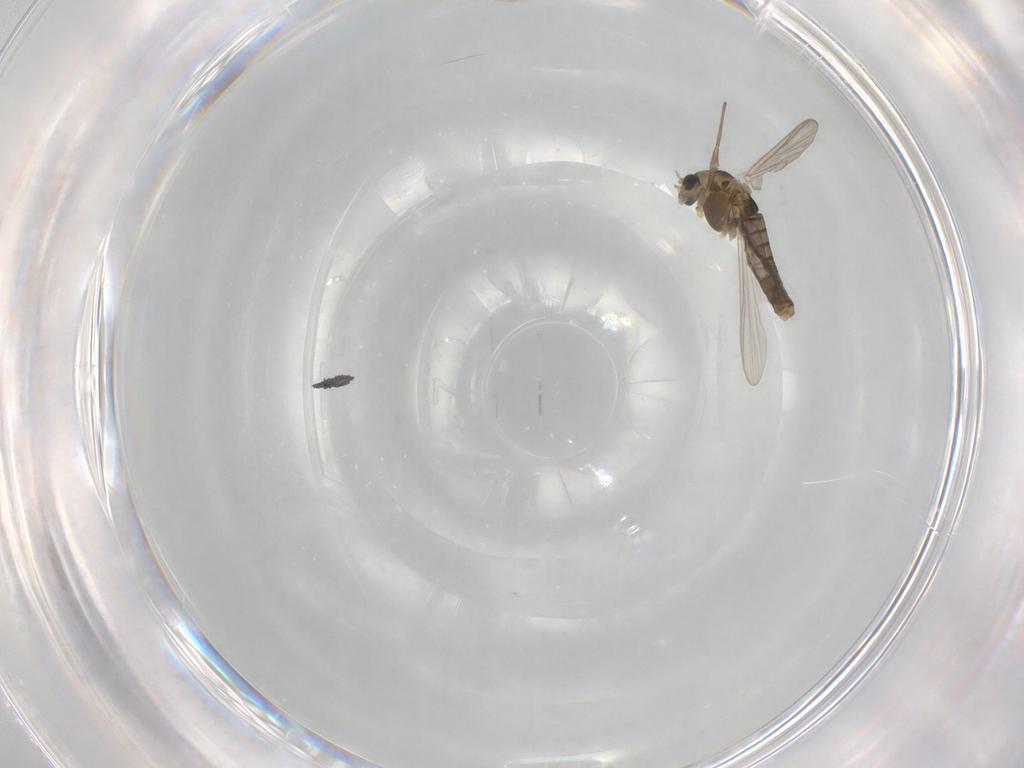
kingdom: Animalia
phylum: Arthropoda
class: Insecta
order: Diptera
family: Chironomidae
